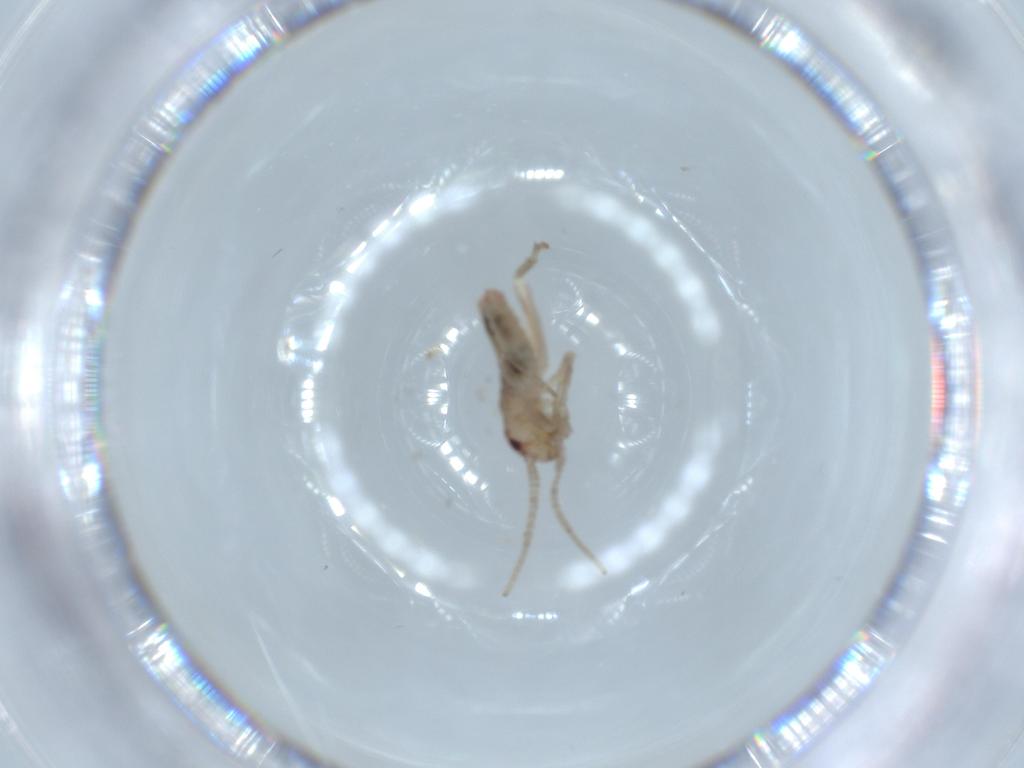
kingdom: Animalia
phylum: Arthropoda
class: Insecta
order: Orthoptera
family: Mogoplistidae
